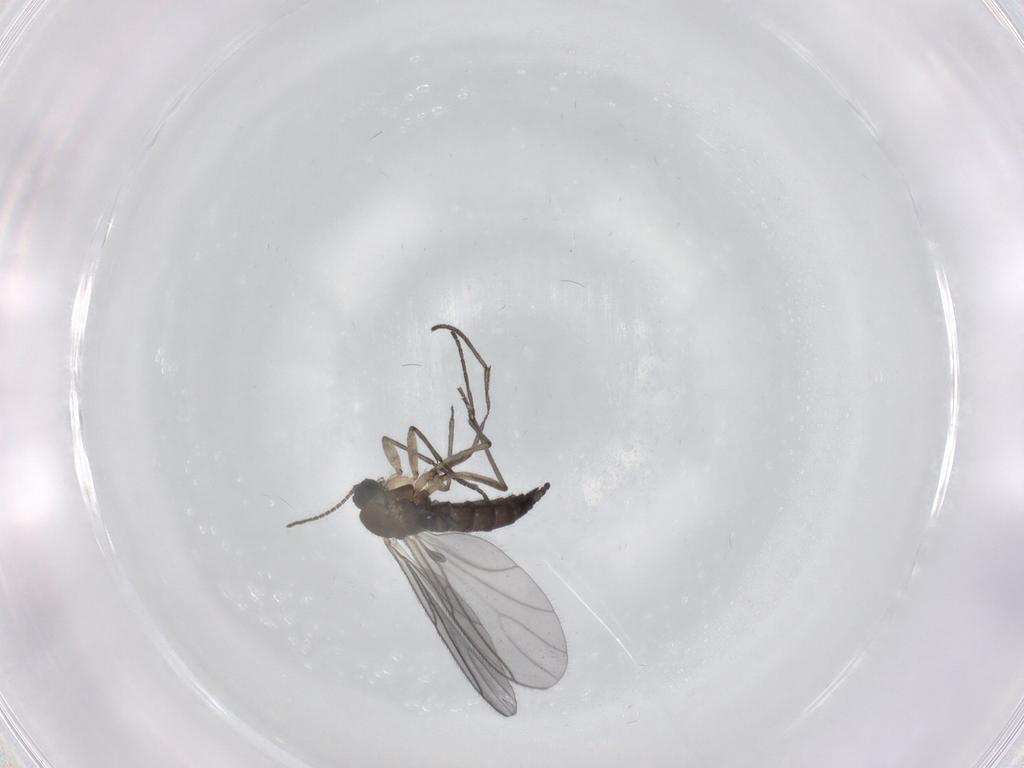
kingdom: Animalia
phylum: Arthropoda
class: Insecta
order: Diptera
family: Sciaridae
